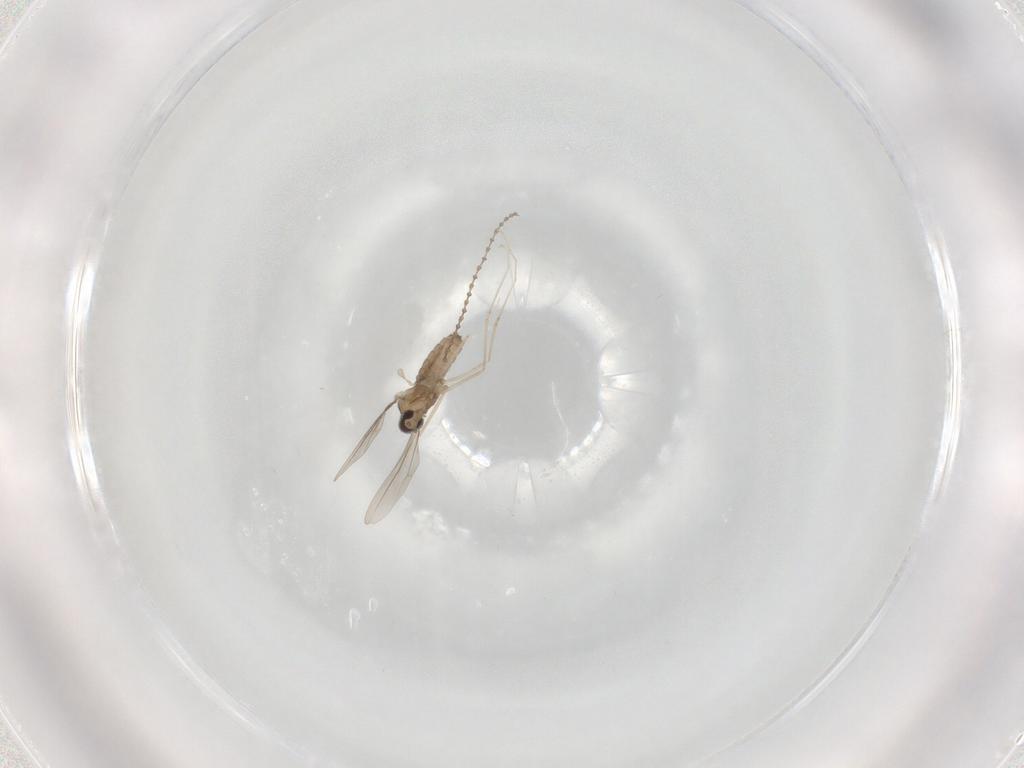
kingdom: Animalia
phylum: Arthropoda
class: Insecta
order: Diptera
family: Cecidomyiidae
